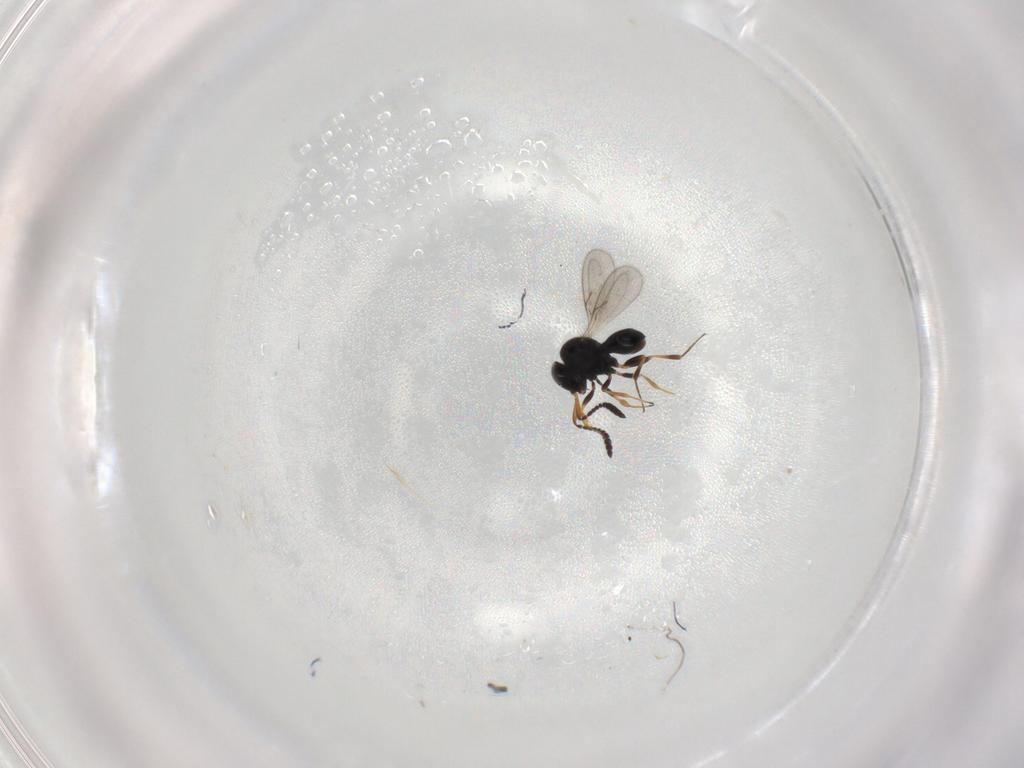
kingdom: Animalia
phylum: Arthropoda
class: Insecta
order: Hymenoptera
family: Scelionidae
